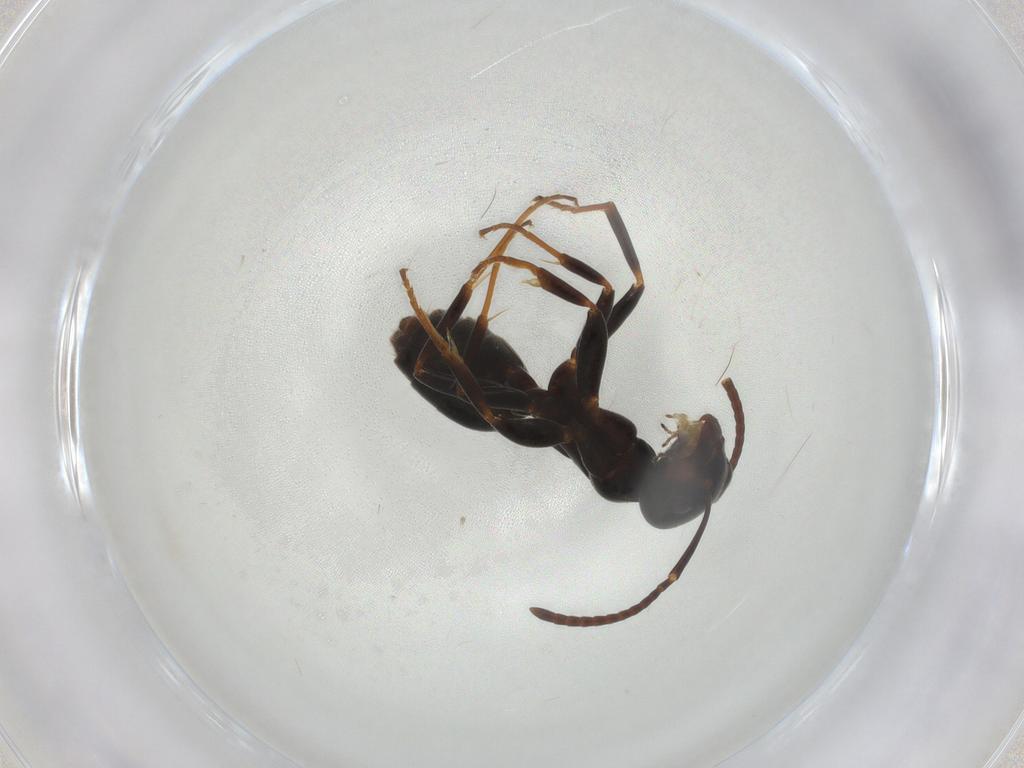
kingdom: Animalia
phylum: Arthropoda
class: Insecta
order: Hymenoptera
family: Formicidae
